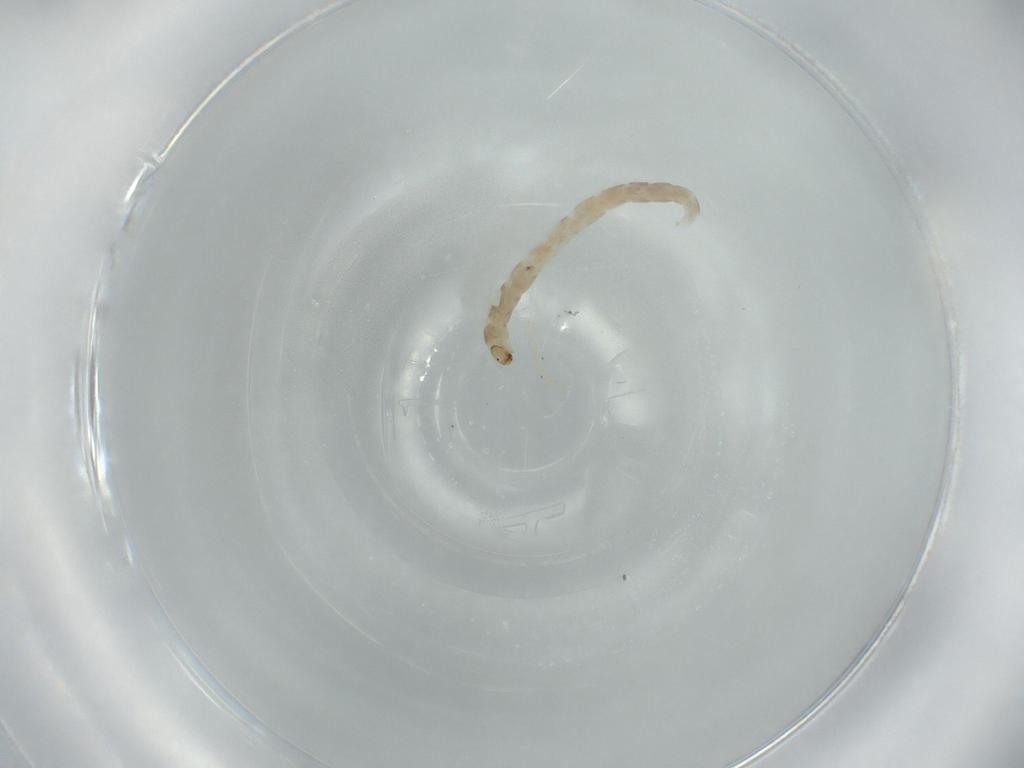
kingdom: Animalia
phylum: Arthropoda
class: Insecta
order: Diptera
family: Chironomidae
